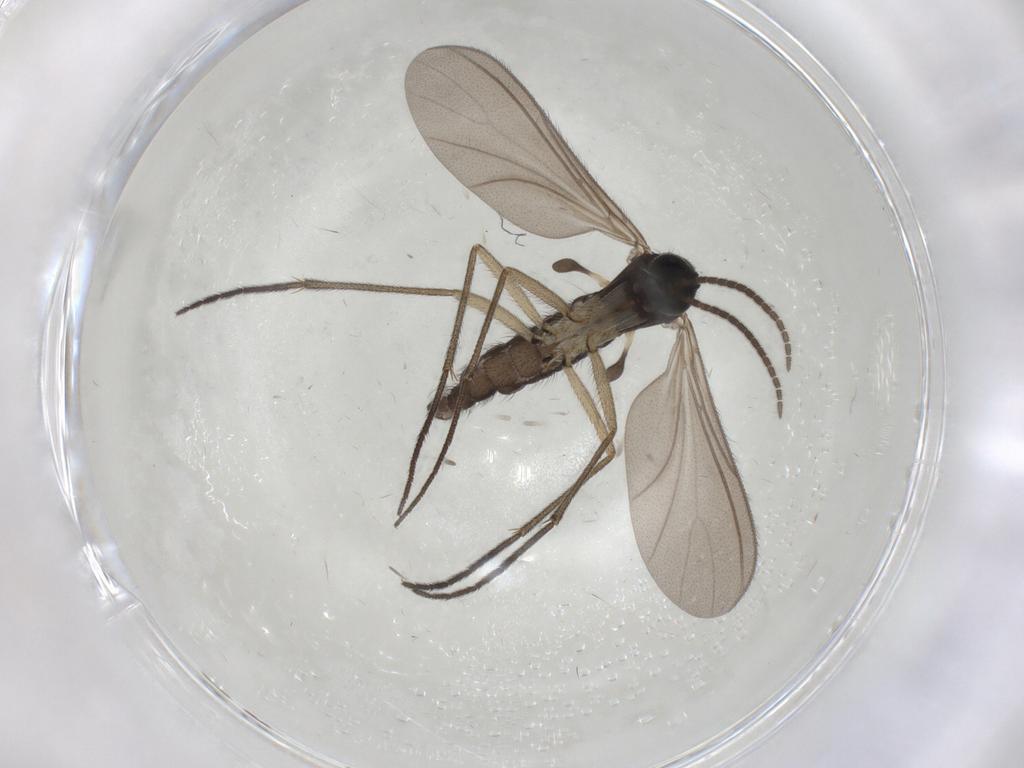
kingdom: Animalia
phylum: Arthropoda
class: Insecta
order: Diptera
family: Sciaridae
